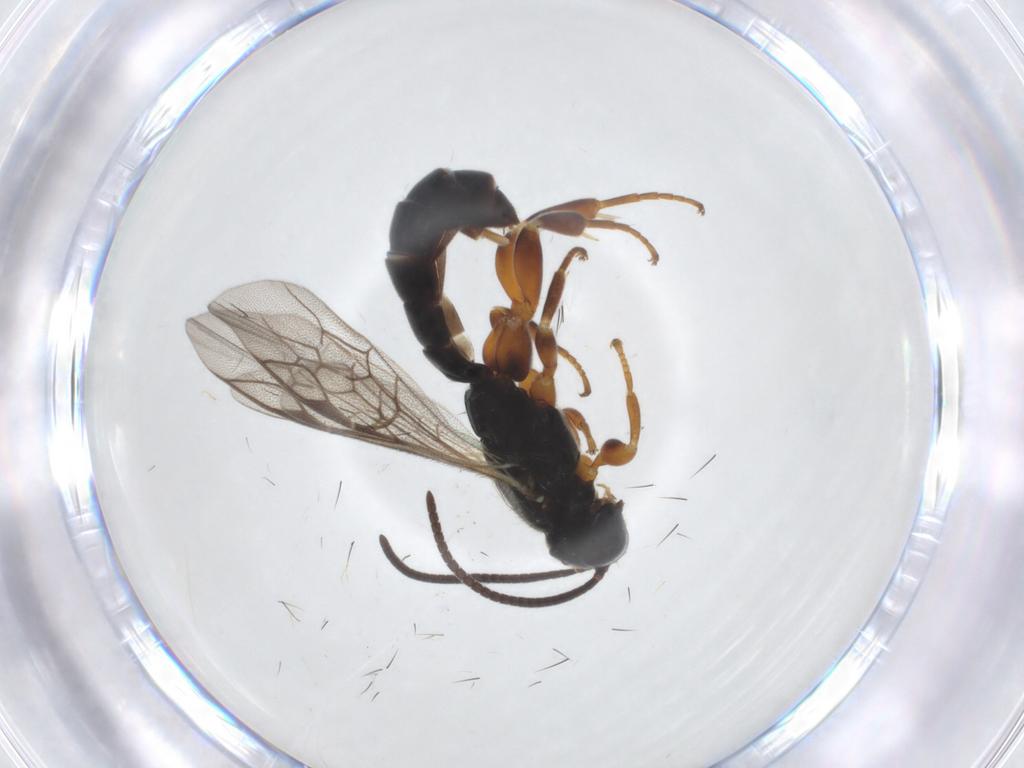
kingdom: Animalia
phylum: Arthropoda
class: Insecta
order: Hymenoptera
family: Ichneumonidae
